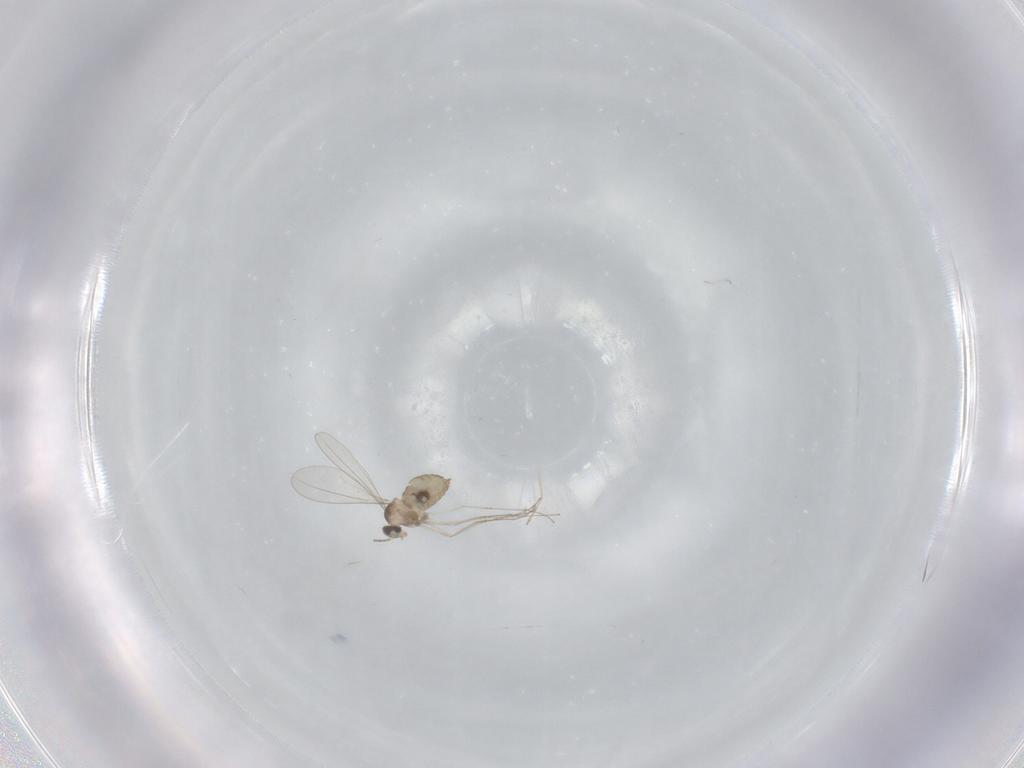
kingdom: Animalia
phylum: Arthropoda
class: Insecta
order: Diptera
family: Cecidomyiidae
